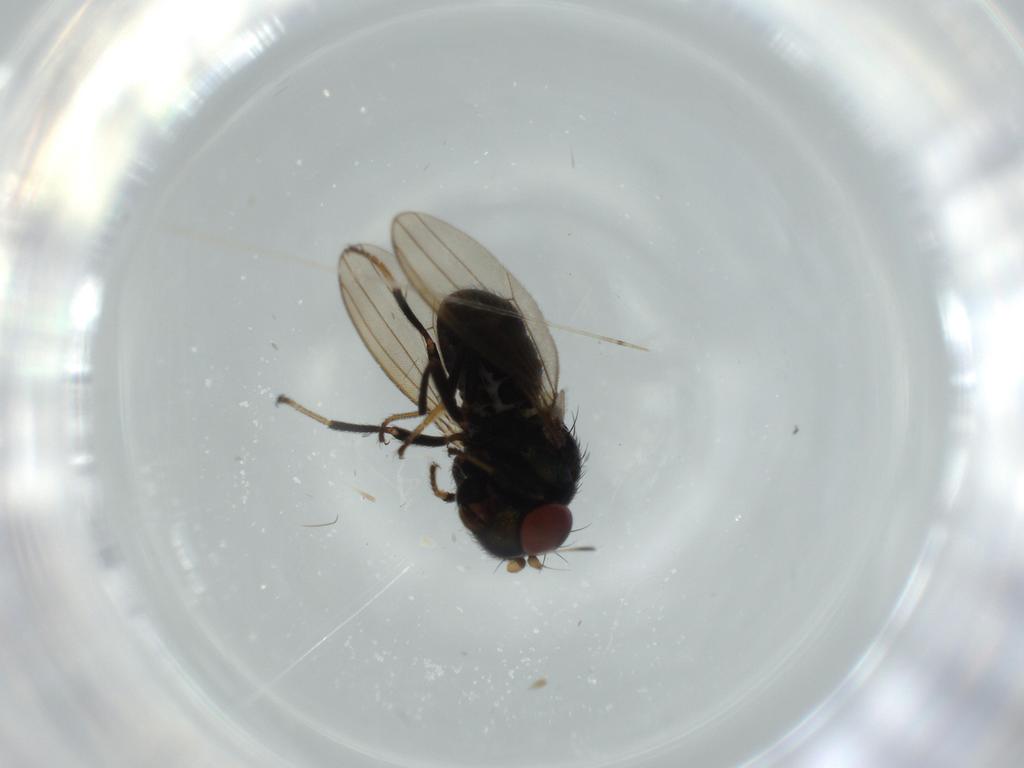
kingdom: Animalia
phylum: Arthropoda
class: Insecta
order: Diptera
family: Ephydridae
